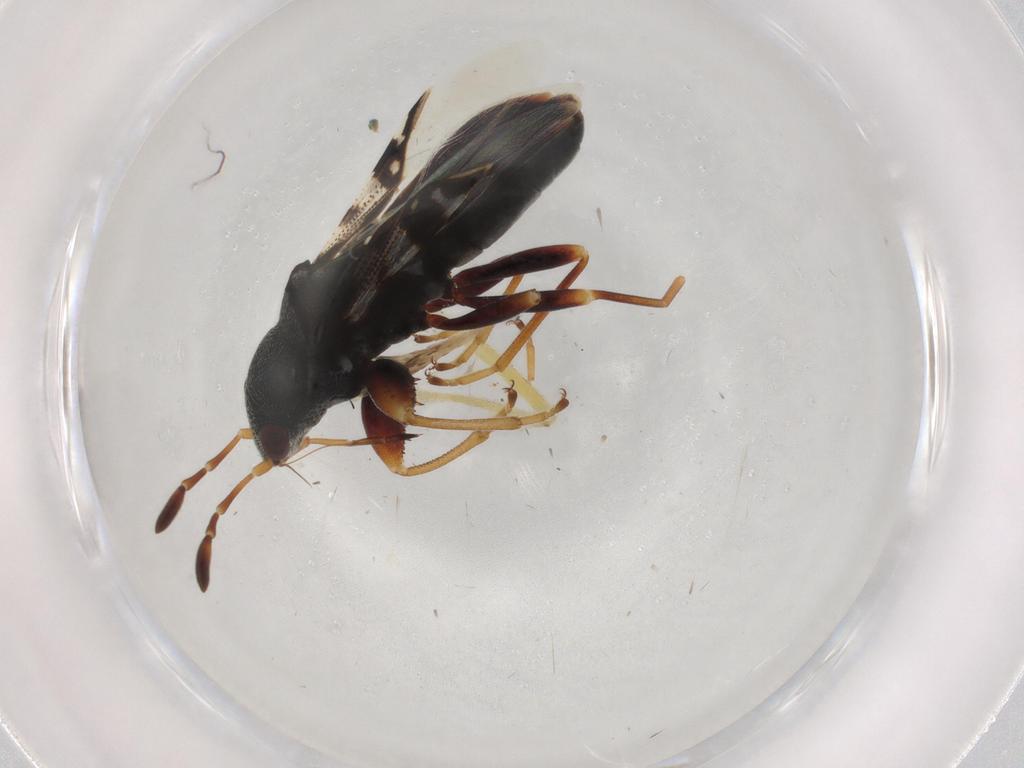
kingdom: Animalia
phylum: Arthropoda
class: Insecta
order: Hemiptera
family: Rhyparochromidae
